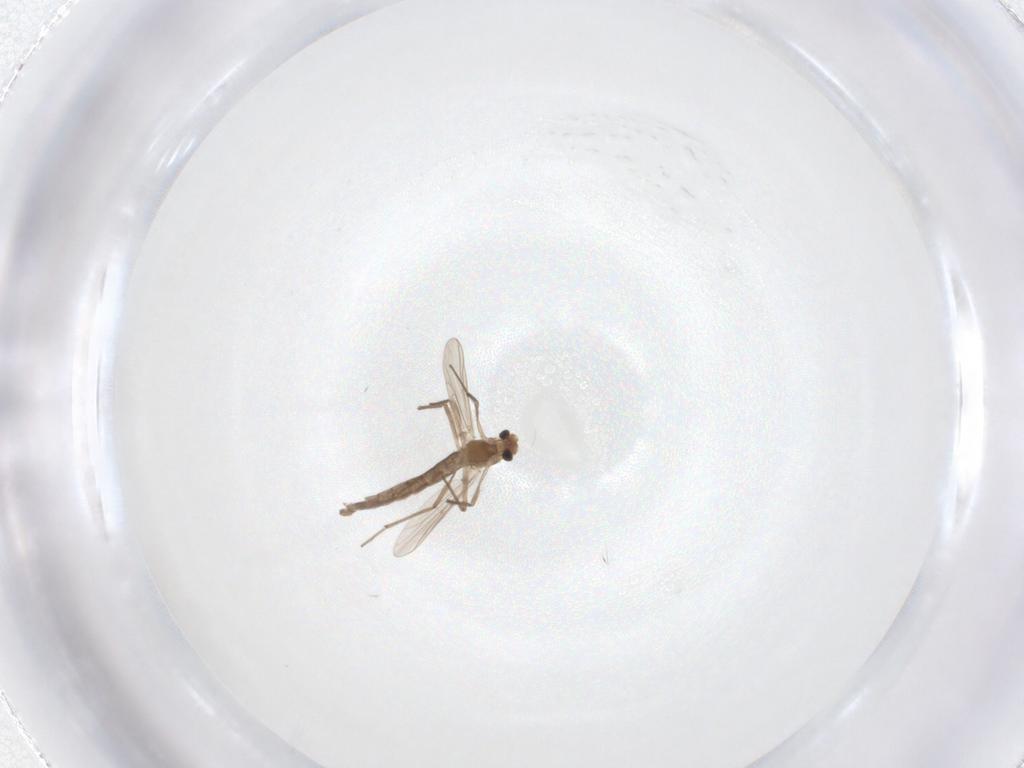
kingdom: Animalia
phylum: Arthropoda
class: Insecta
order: Diptera
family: Chironomidae
